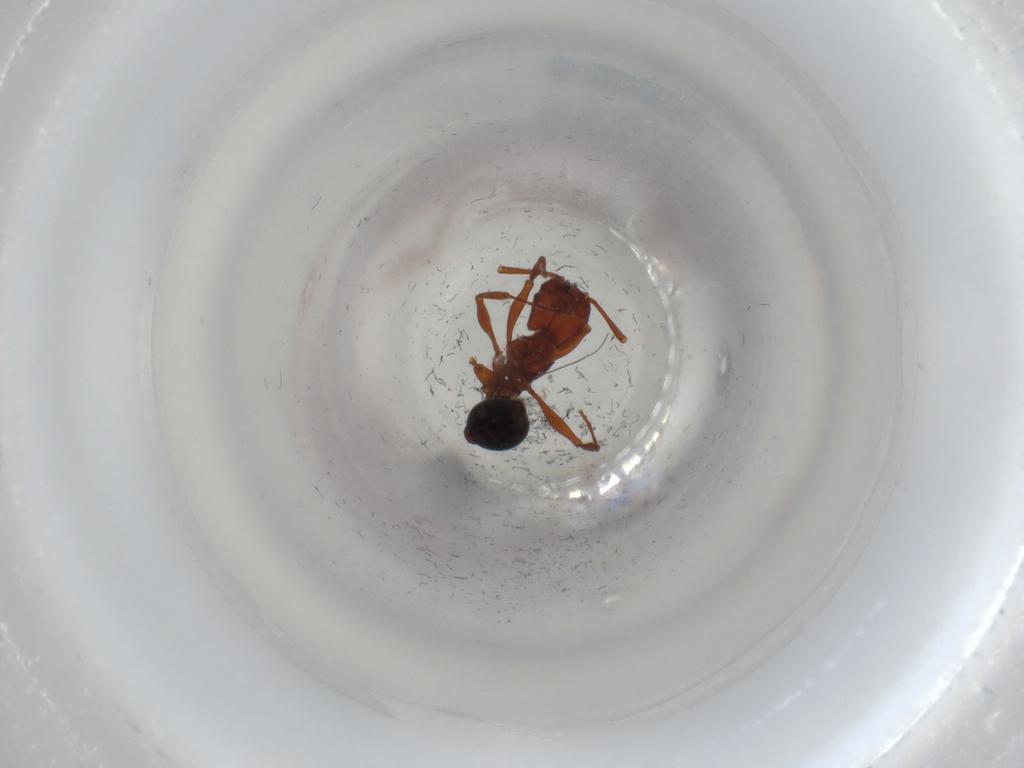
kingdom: Animalia
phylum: Arthropoda
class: Insecta
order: Hymenoptera
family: Formicidae
